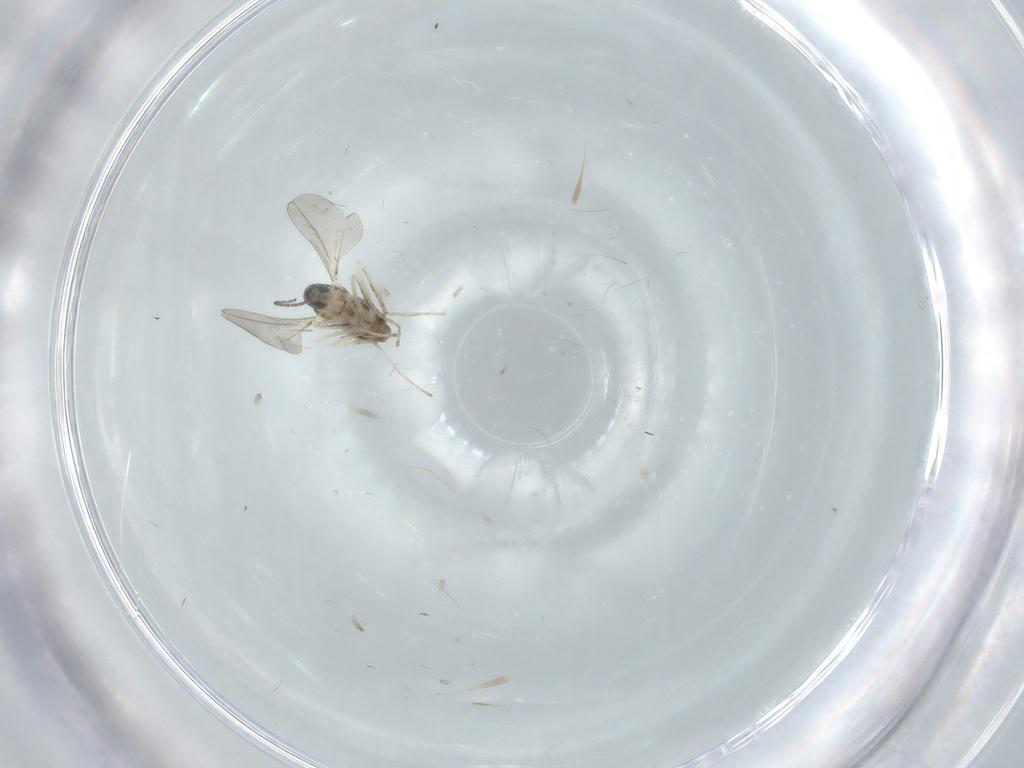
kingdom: Animalia
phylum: Arthropoda
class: Insecta
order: Diptera
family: Cecidomyiidae
